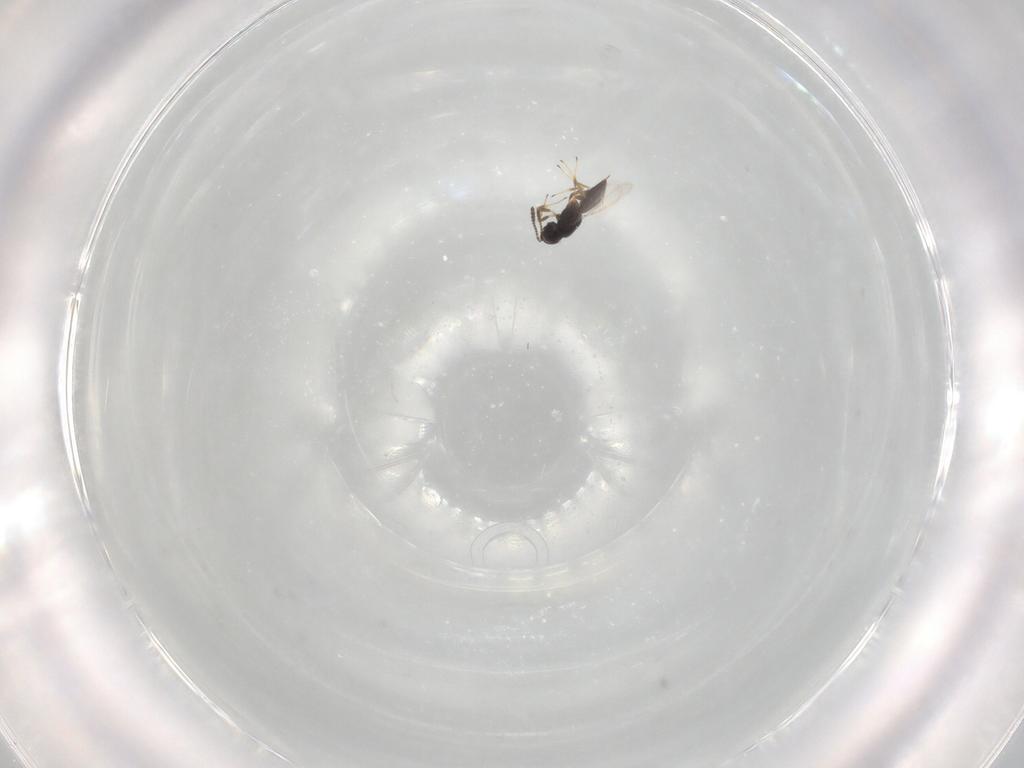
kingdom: Animalia
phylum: Arthropoda
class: Insecta
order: Hymenoptera
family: Scelionidae
